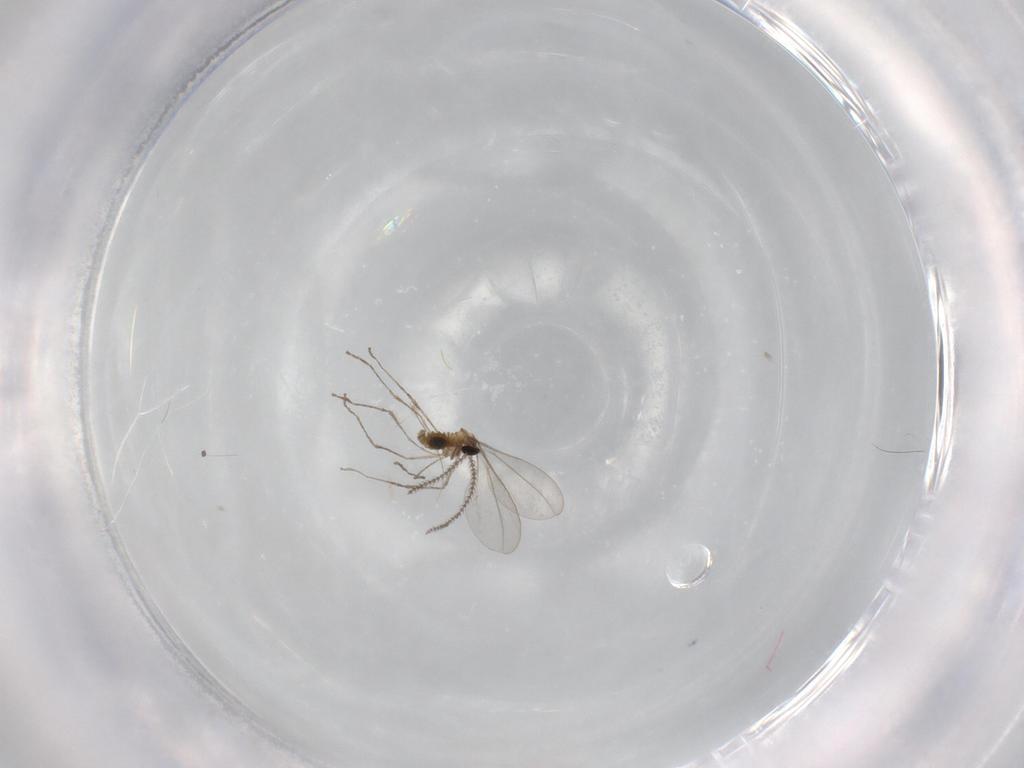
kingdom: Animalia
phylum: Arthropoda
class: Insecta
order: Diptera
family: Cecidomyiidae
